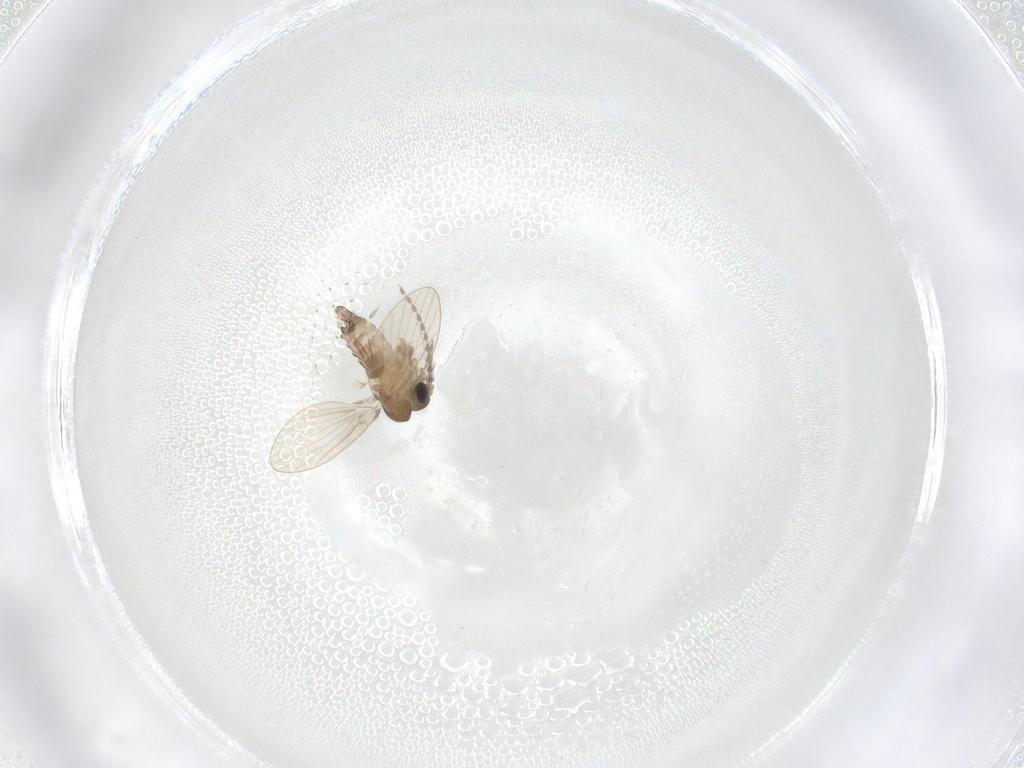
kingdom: Animalia
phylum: Arthropoda
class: Insecta
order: Diptera
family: Psychodidae
